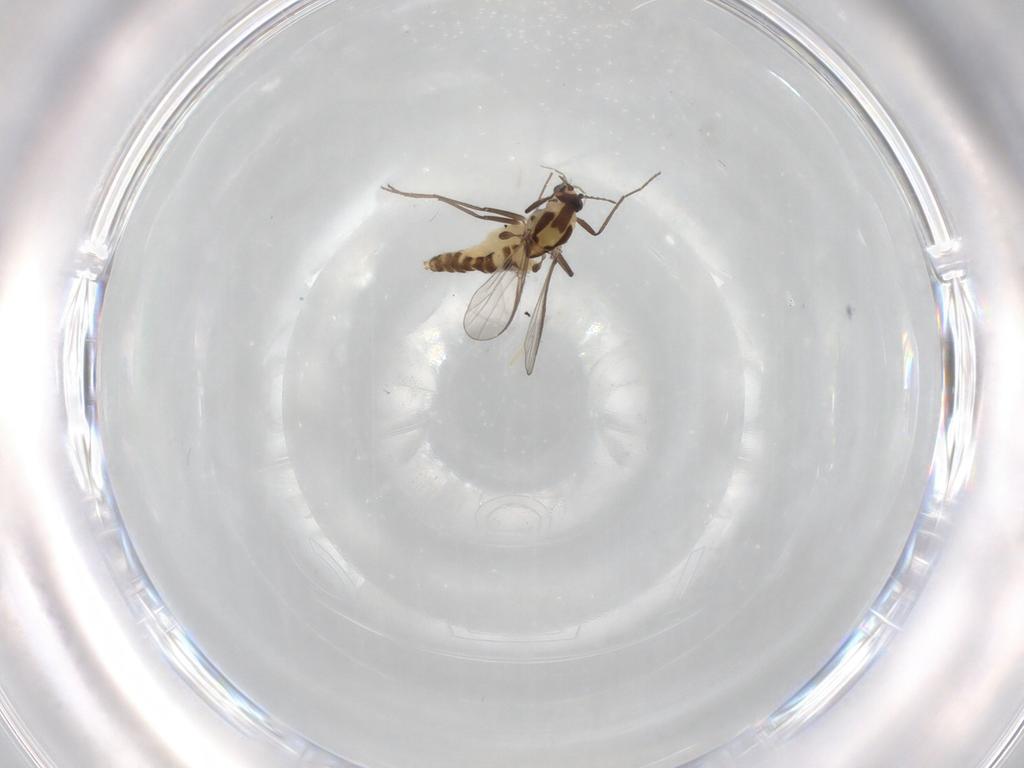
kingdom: Animalia
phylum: Arthropoda
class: Insecta
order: Diptera
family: Chironomidae
